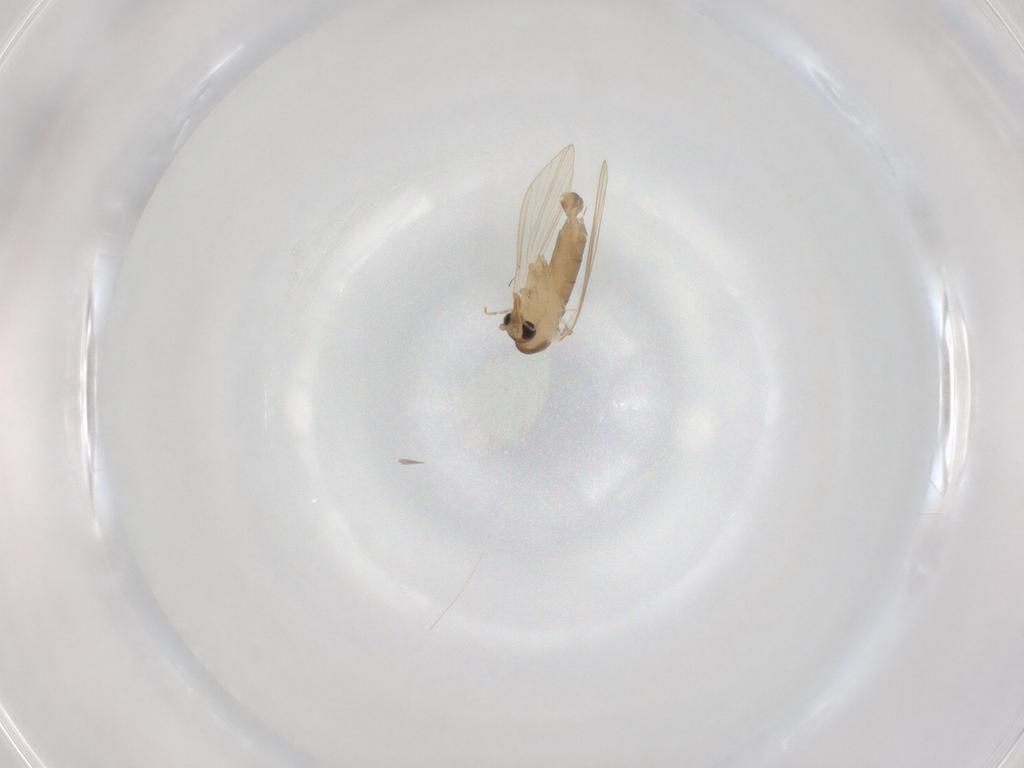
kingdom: Animalia
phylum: Arthropoda
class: Insecta
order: Diptera
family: Psychodidae
